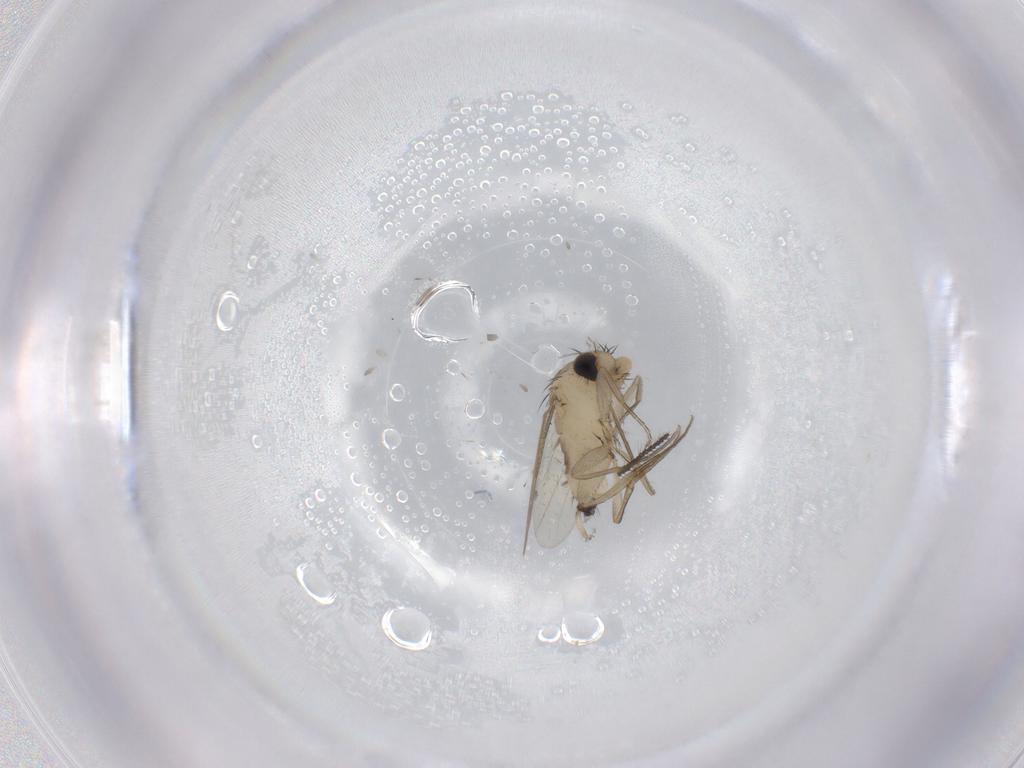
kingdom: Animalia
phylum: Arthropoda
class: Insecta
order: Diptera
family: Phoridae
